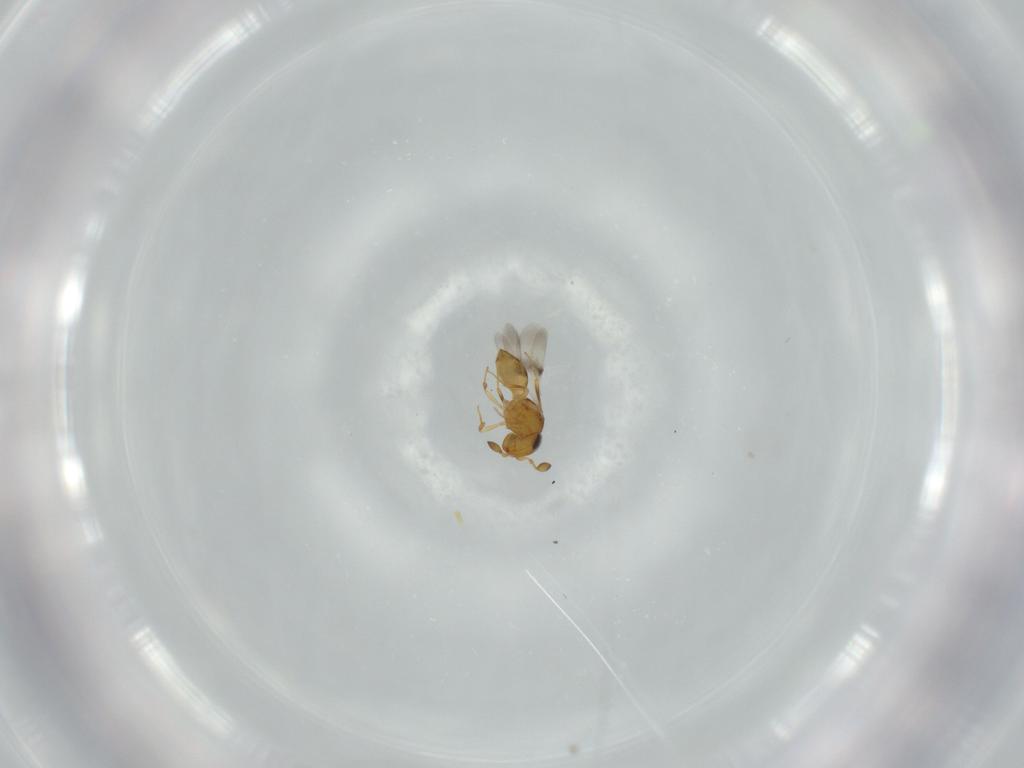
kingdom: Animalia
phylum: Arthropoda
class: Insecta
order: Hymenoptera
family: Scelionidae
